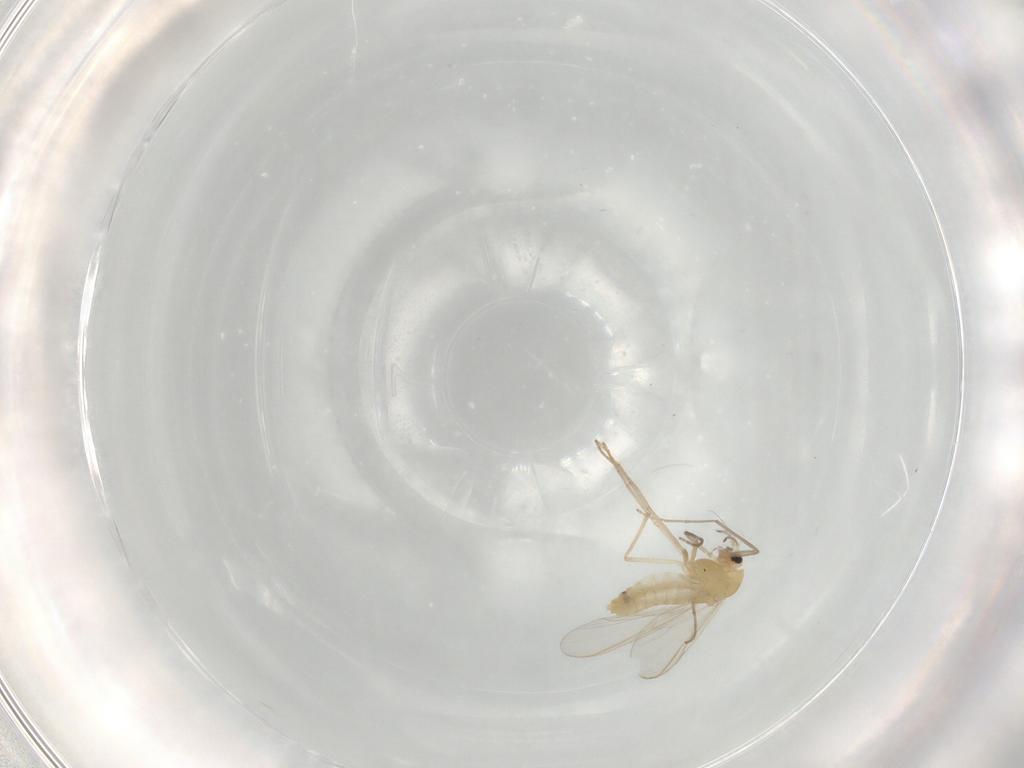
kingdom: Animalia
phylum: Arthropoda
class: Insecta
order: Diptera
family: Chironomidae
